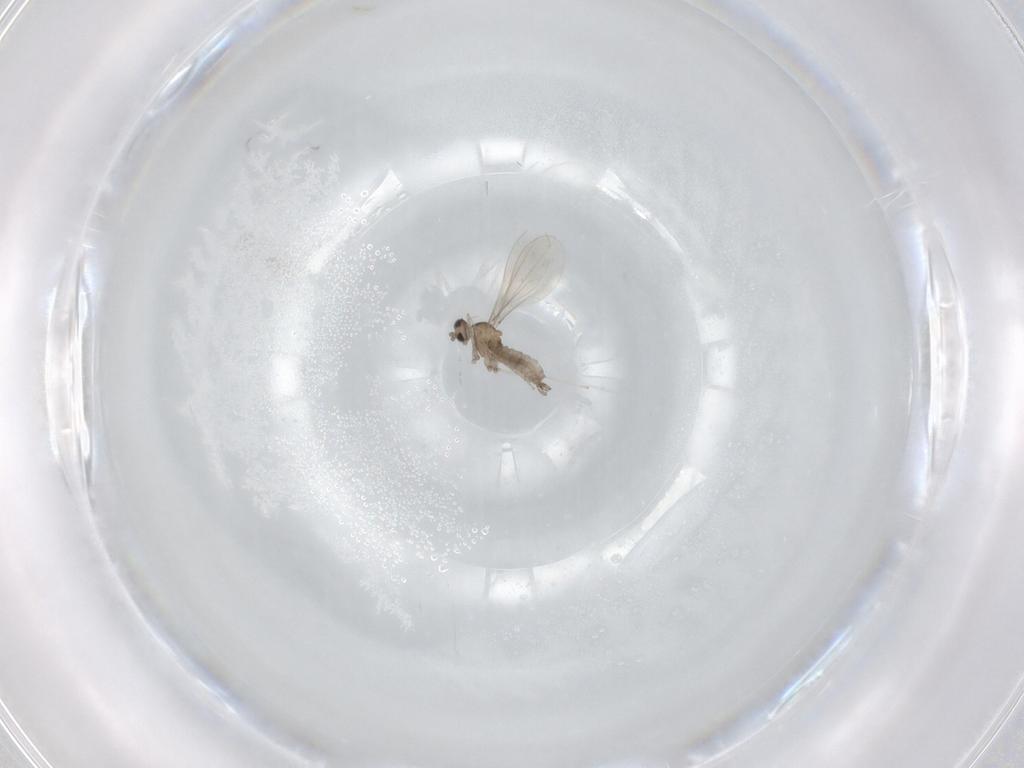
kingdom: Animalia
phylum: Arthropoda
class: Insecta
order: Diptera
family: Cecidomyiidae
